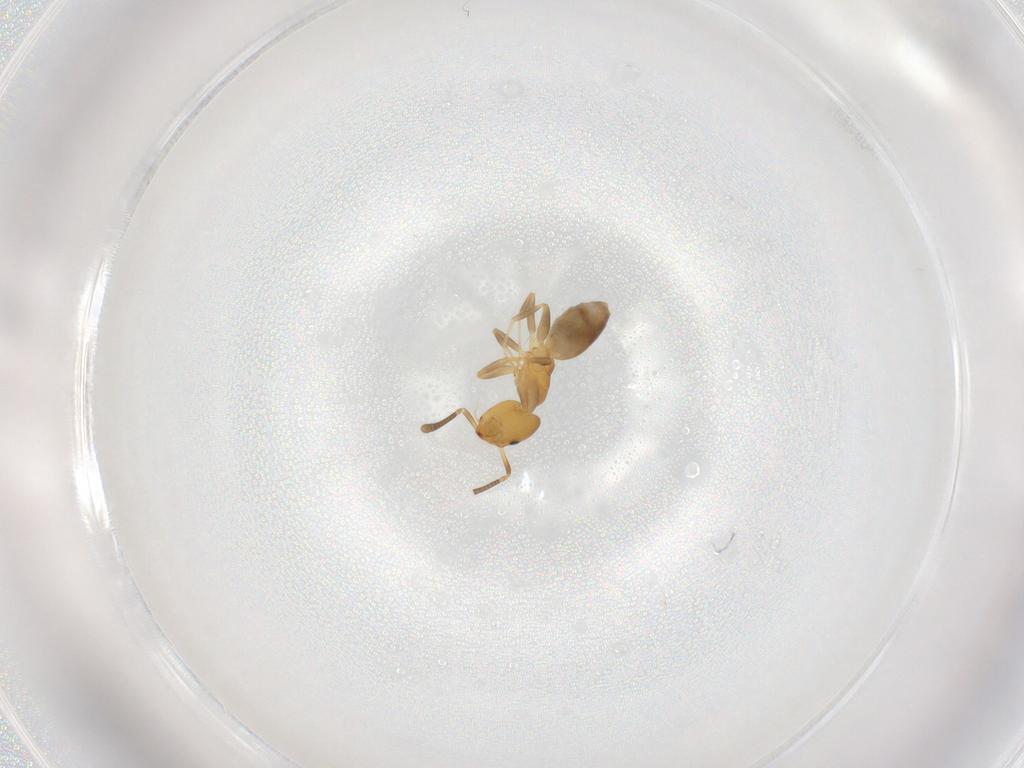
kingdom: Animalia
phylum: Arthropoda
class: Insecta
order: Hymenoptera
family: Formicidae
